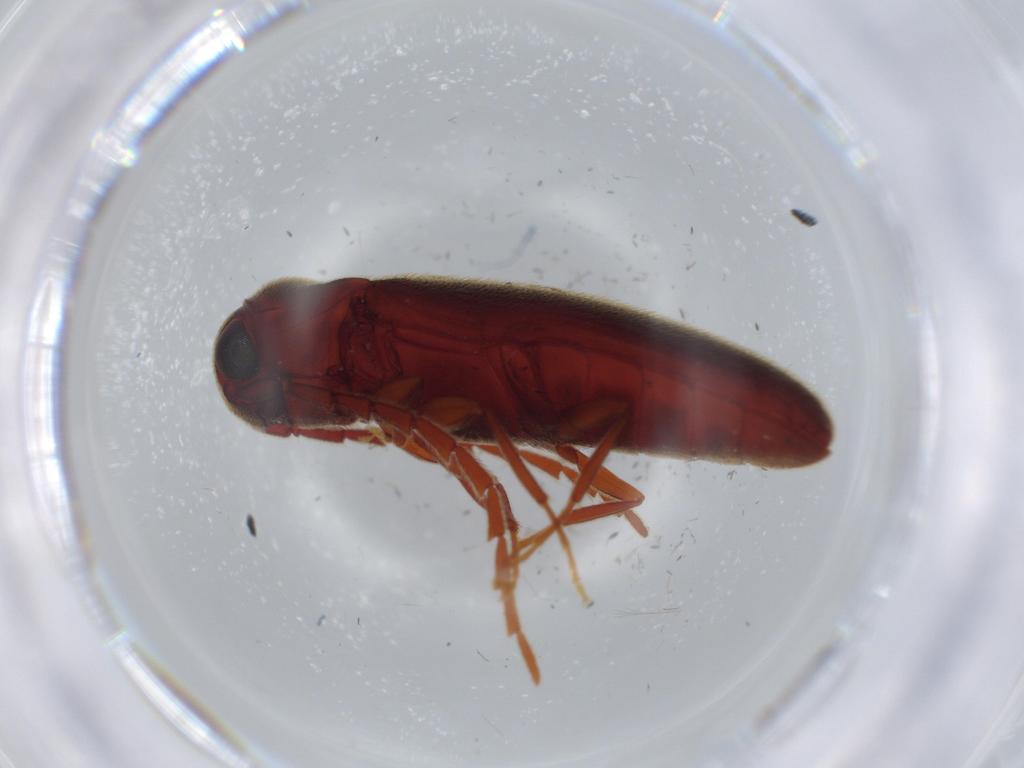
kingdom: Animalia
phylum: Arthropoda
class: Insecta
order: Coleoptera
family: Eucnemidae
